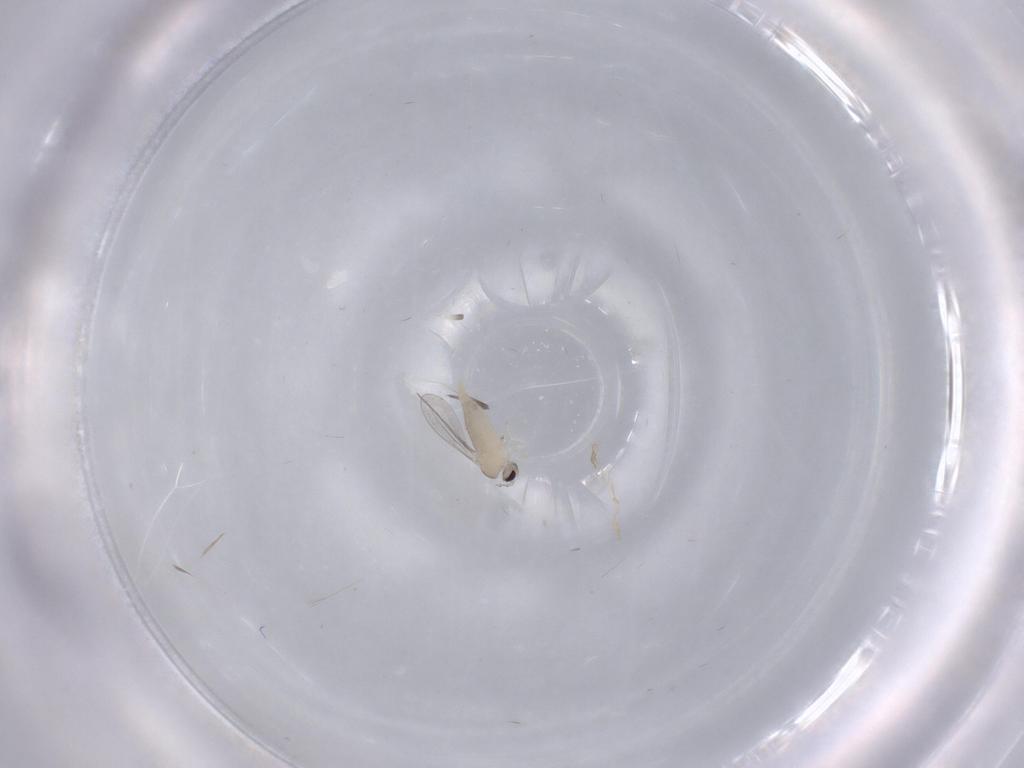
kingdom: Animalia
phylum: Arthropoda
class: Insecta
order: Diptera
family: Cecidomyiidae
